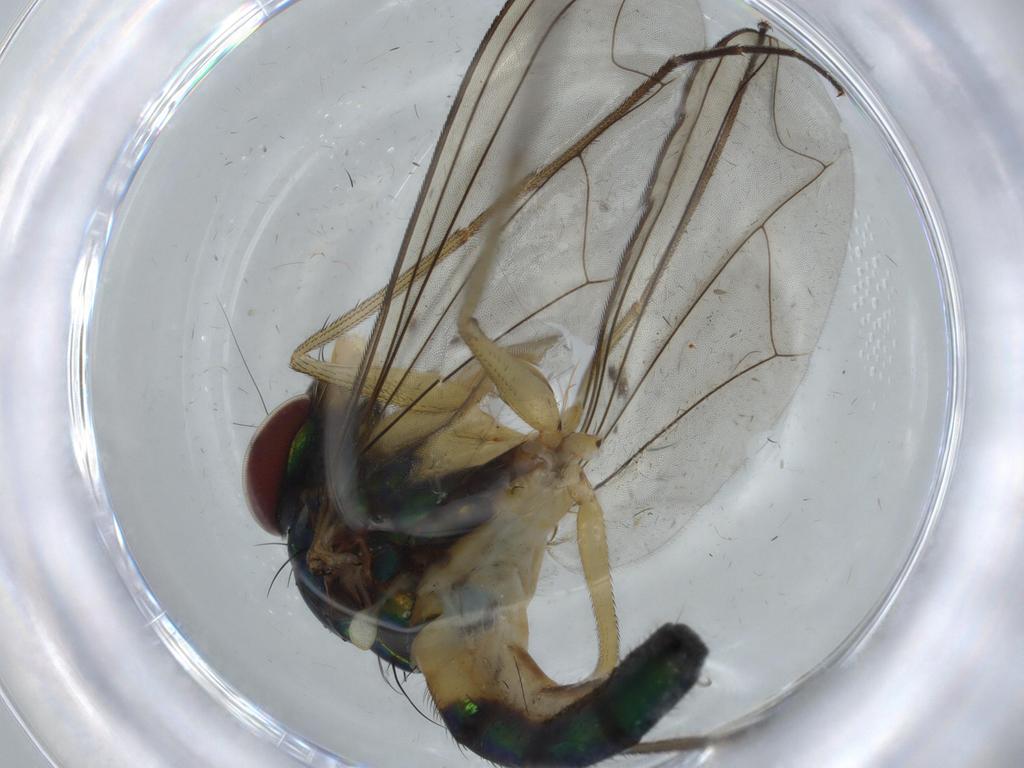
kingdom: Animalia
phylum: Arthropoda
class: Insecta
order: Diptera
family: Dolichopodidae
